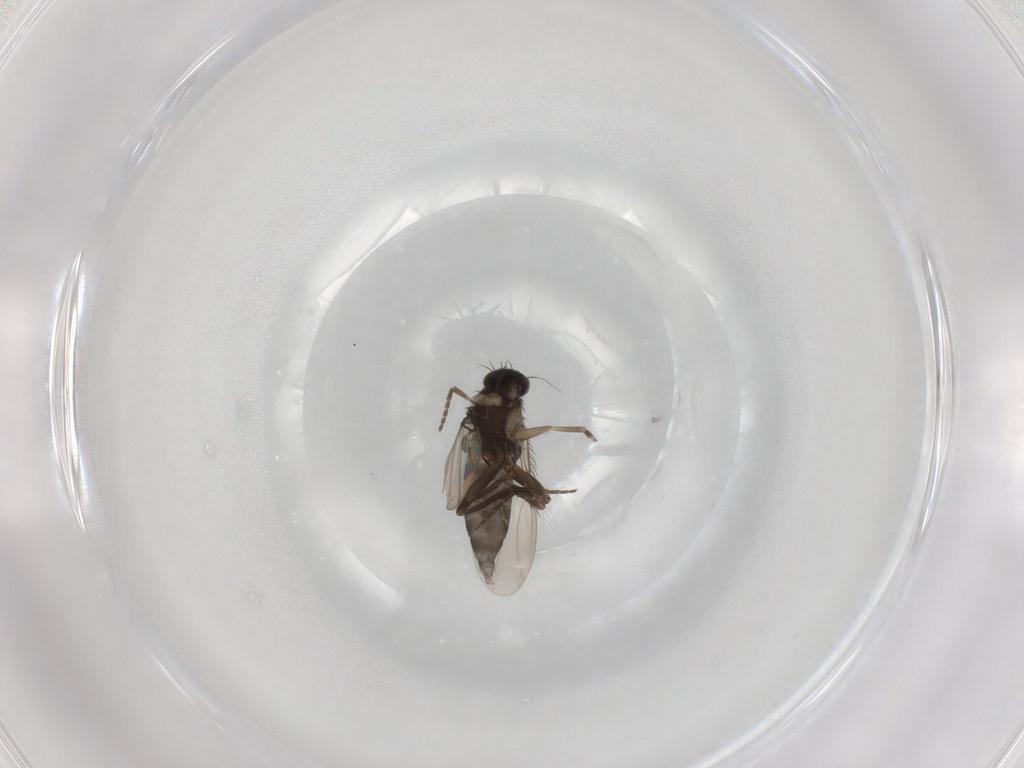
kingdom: Animalia
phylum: Arthropoda
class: Insecta
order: Diptera
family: Phoridae
